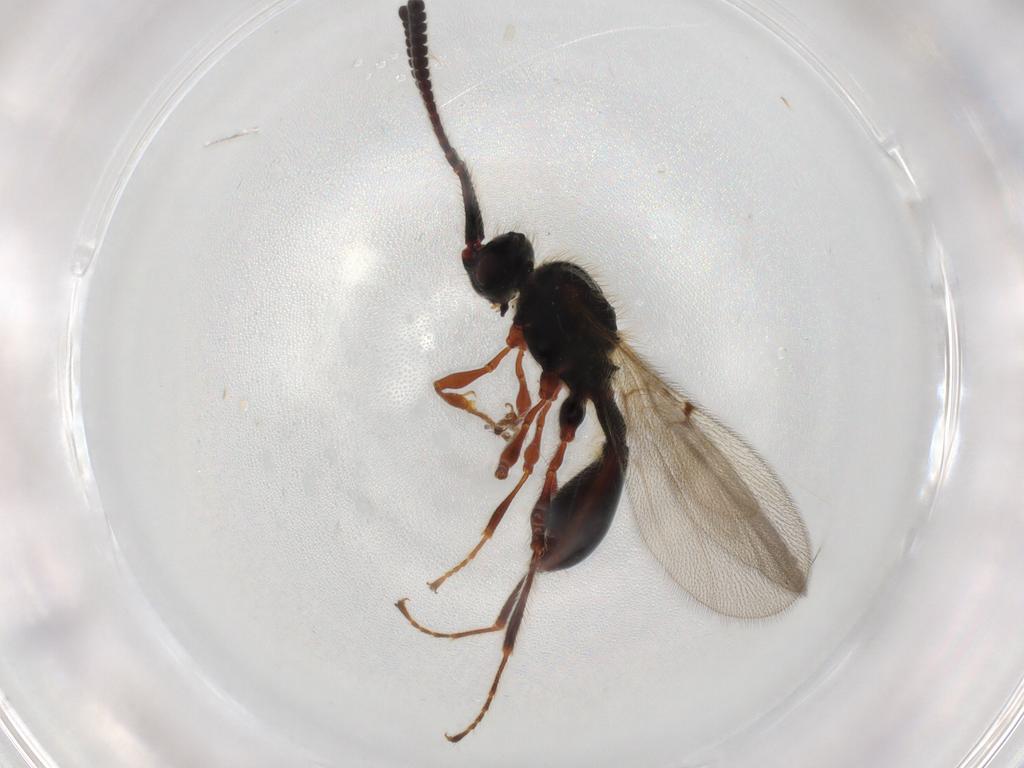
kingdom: Animalia
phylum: Arthropoda
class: Insecta
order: Hymenoptera
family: Diapriidae
